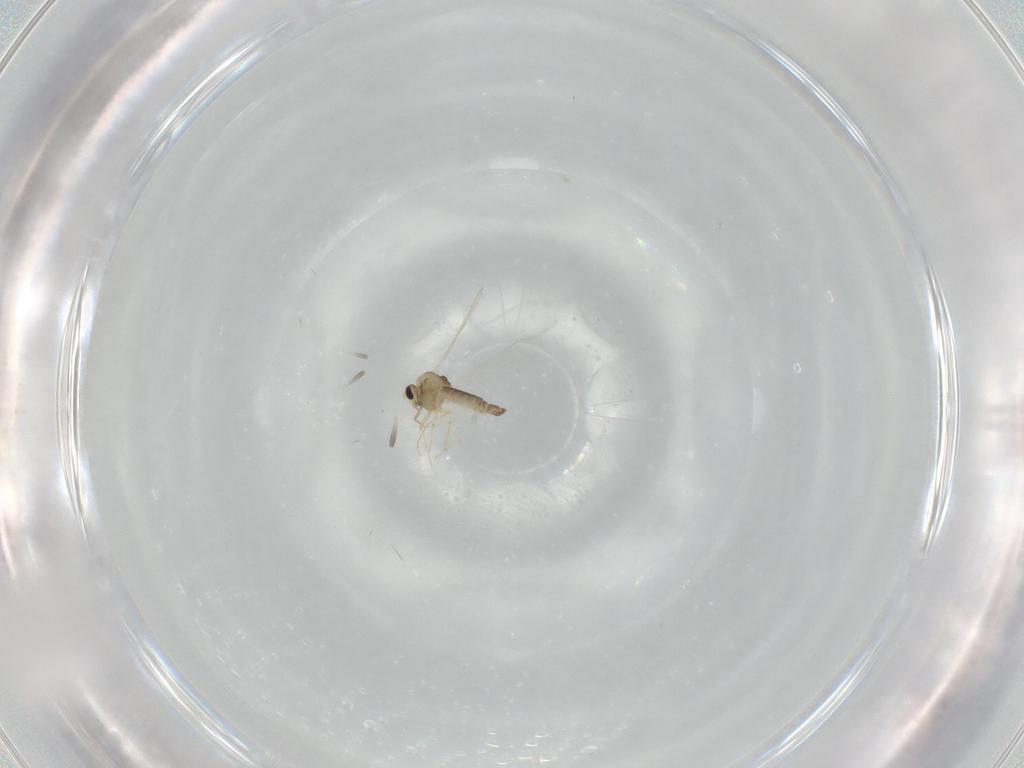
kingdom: Animalia
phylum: Arthropoda
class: Insecta
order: Diptera
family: Chironomidae
